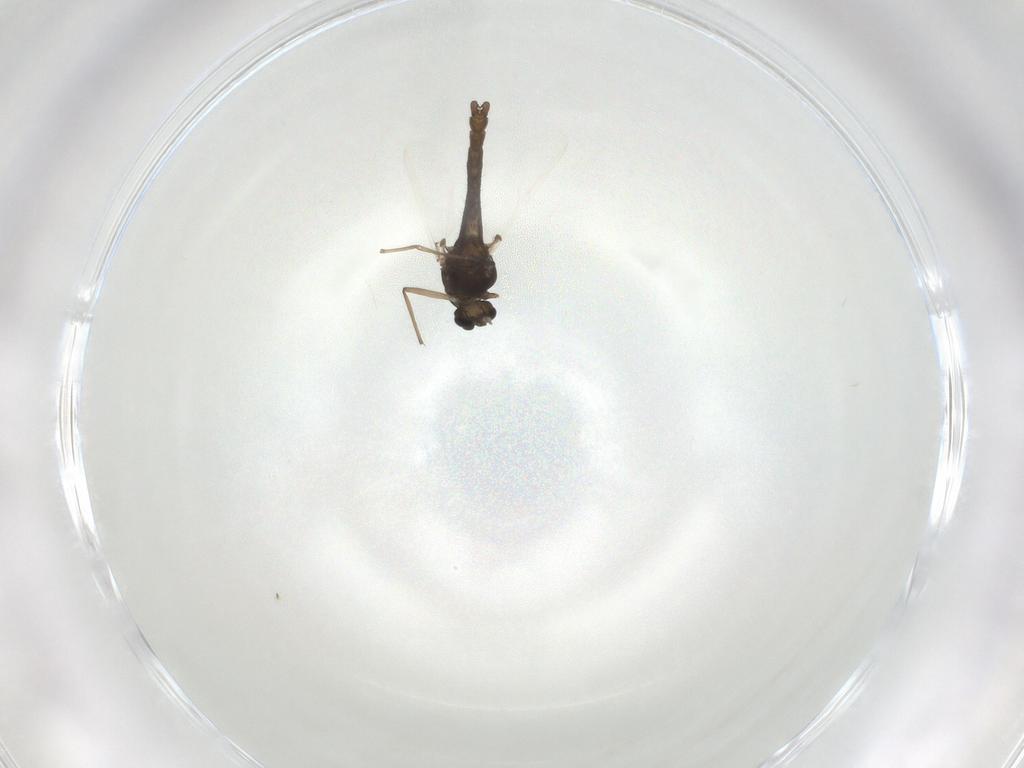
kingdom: Animalia
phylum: Arthropoda
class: Insecta
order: Diptera
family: Chironomidae
